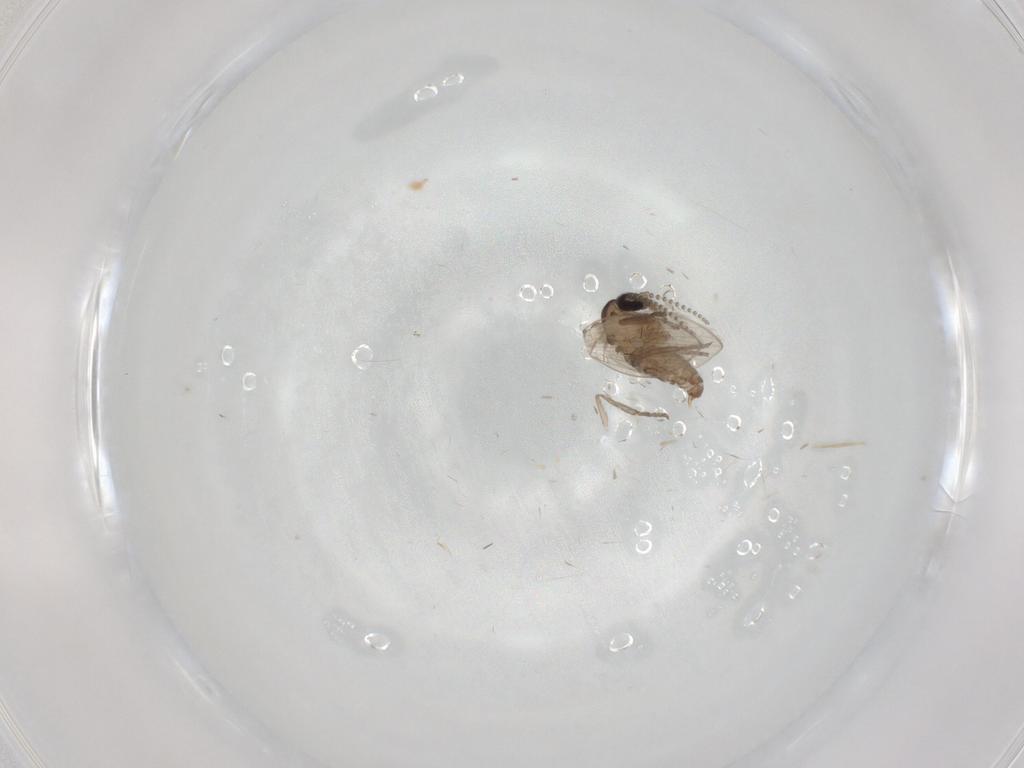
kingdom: Animalia
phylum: Arthropoda
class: Insecta
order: Diptera
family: Psychodidae
